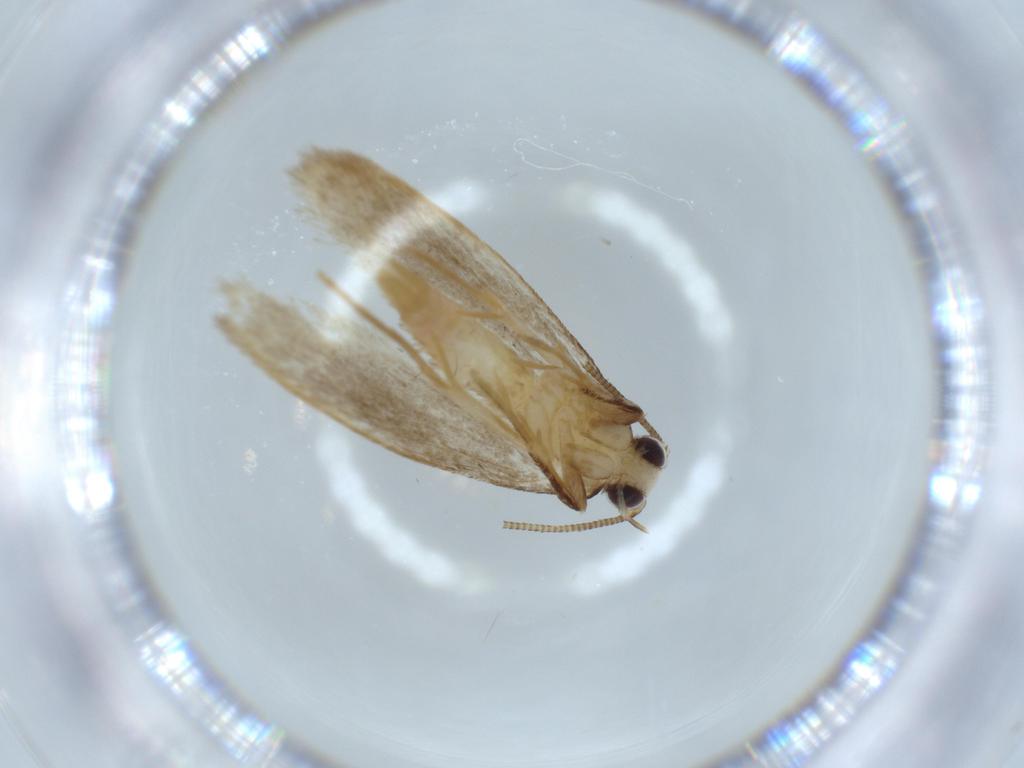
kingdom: Animalia
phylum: Arthropoda
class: Insecta
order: Lepidoptera
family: Tineidae
